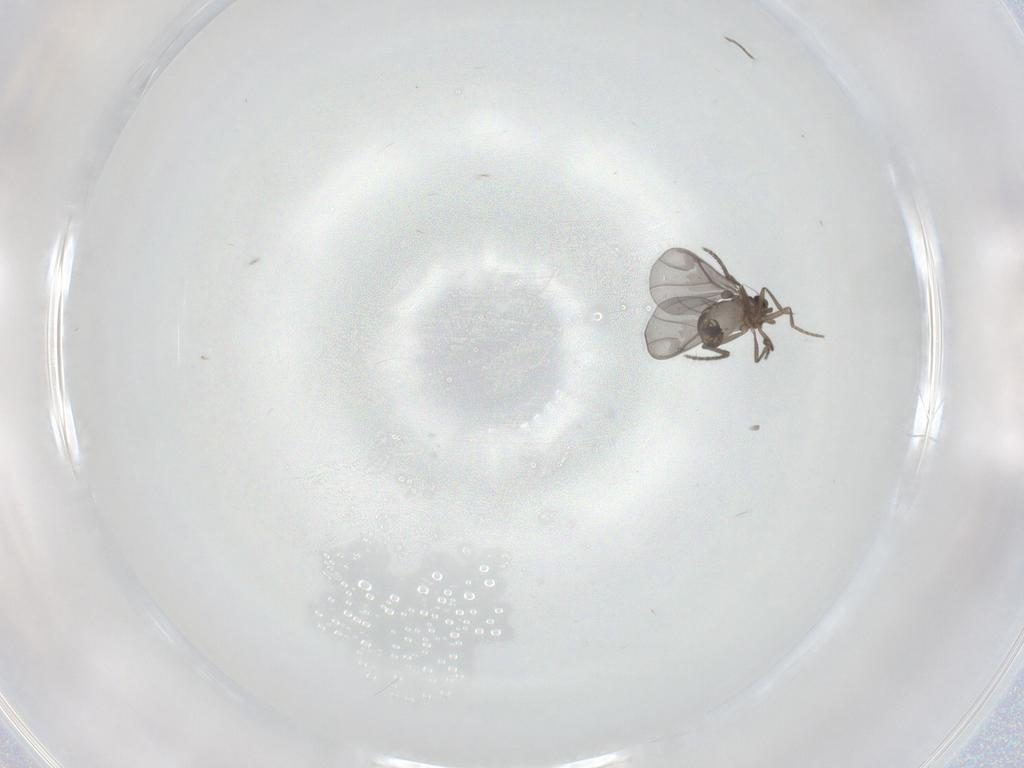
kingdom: Animalia
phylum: Arthropoda
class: Insecta
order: Diptera
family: Phoridae
